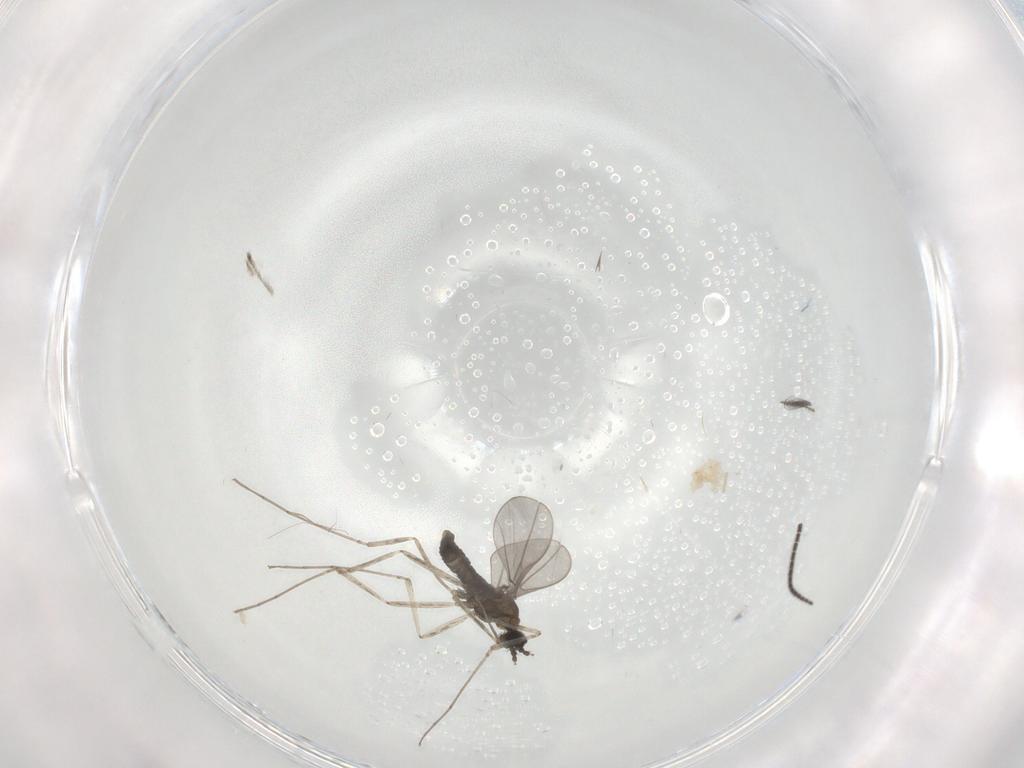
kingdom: Animalia
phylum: Arthropoda
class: Insecta
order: Diptera
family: Cecidomyiidae
